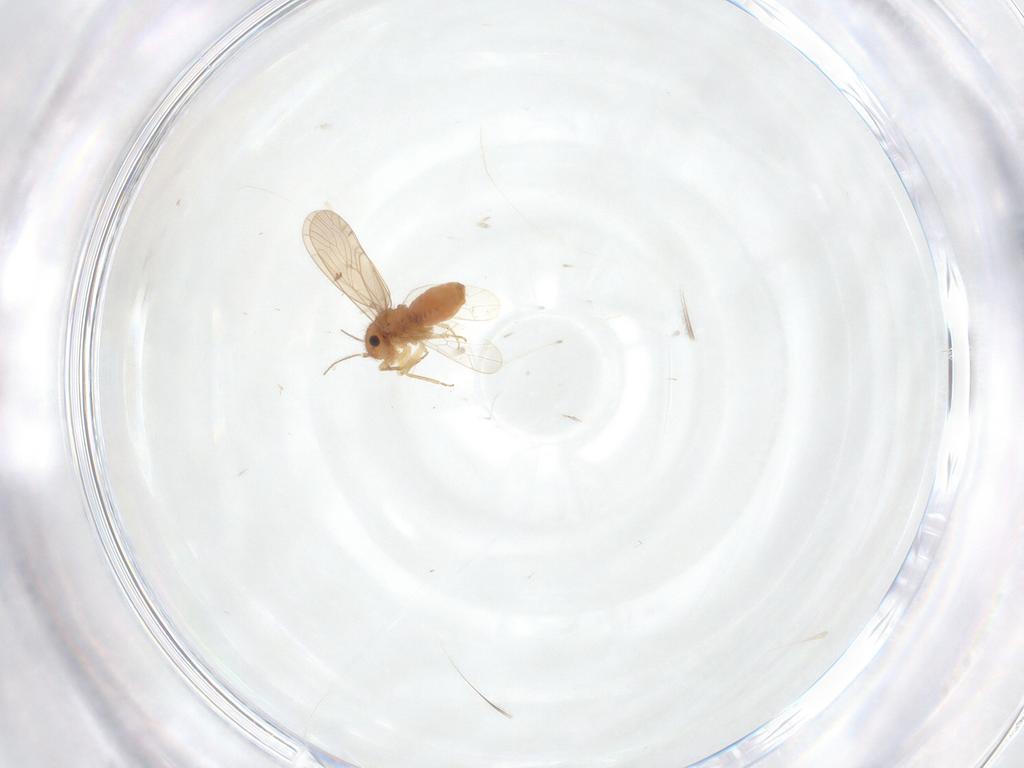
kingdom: Animalia
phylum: Arthropoda
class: Insecta
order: Psocodea
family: Ectopsocidae
